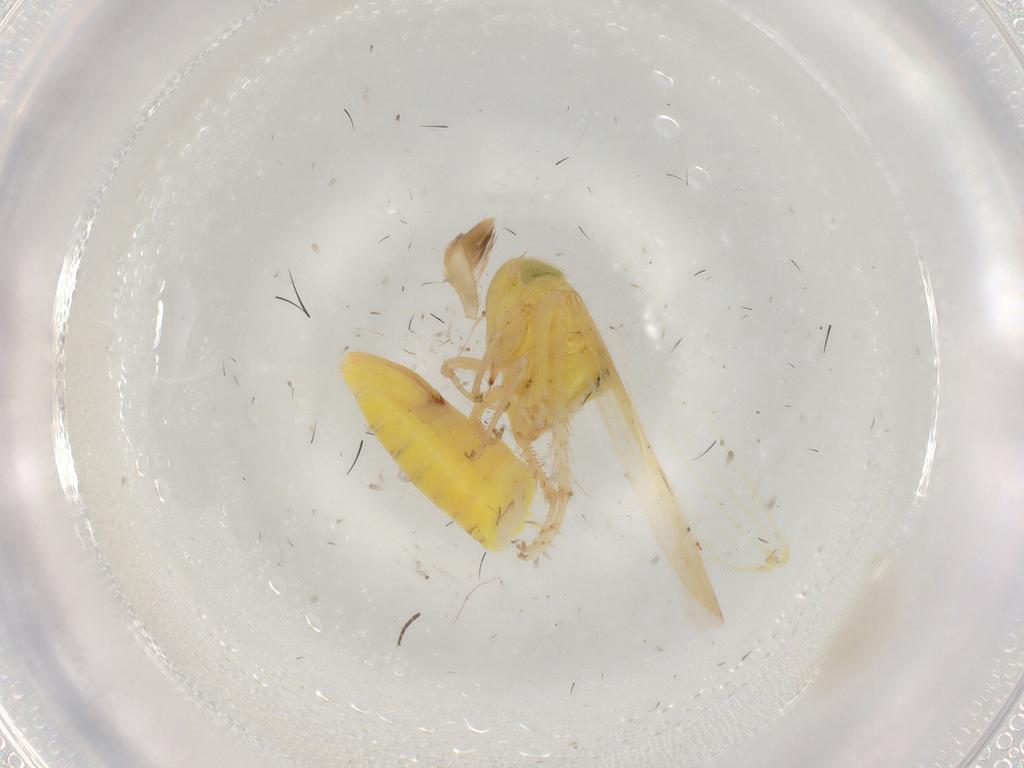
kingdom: Animalia
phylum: Arthropoda
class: Insecta
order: Hemiptera
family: Cicadellidae
